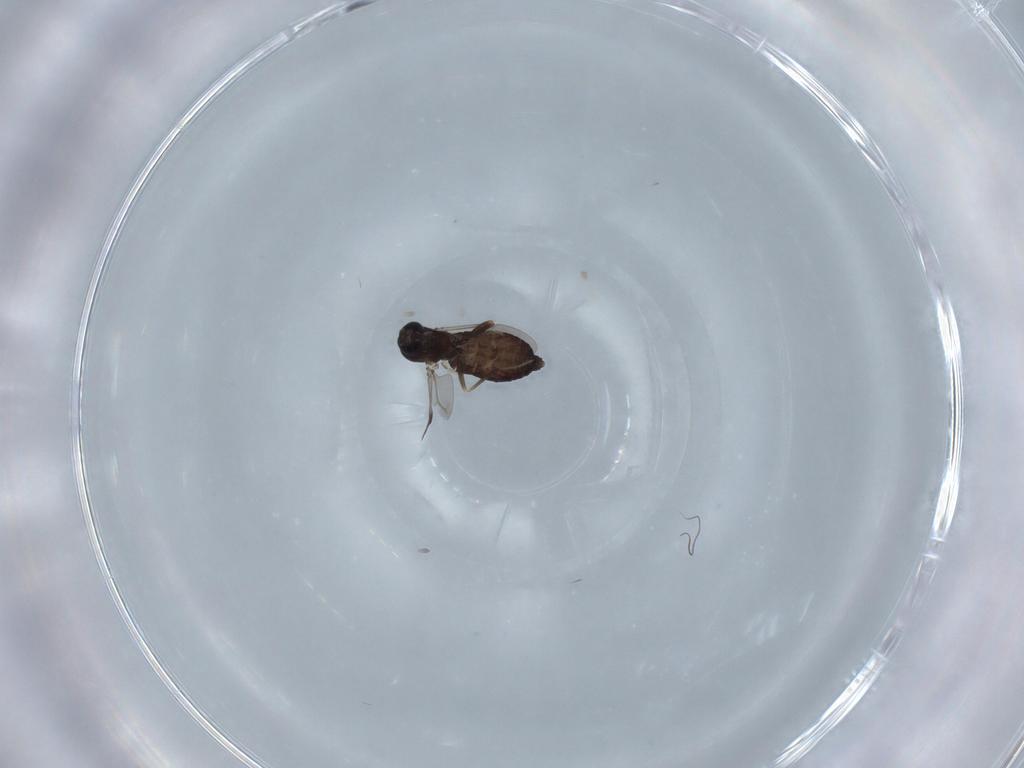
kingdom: Animalia
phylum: Arthropoda
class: Insecta
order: Diptera
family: Ceratopogonidae
